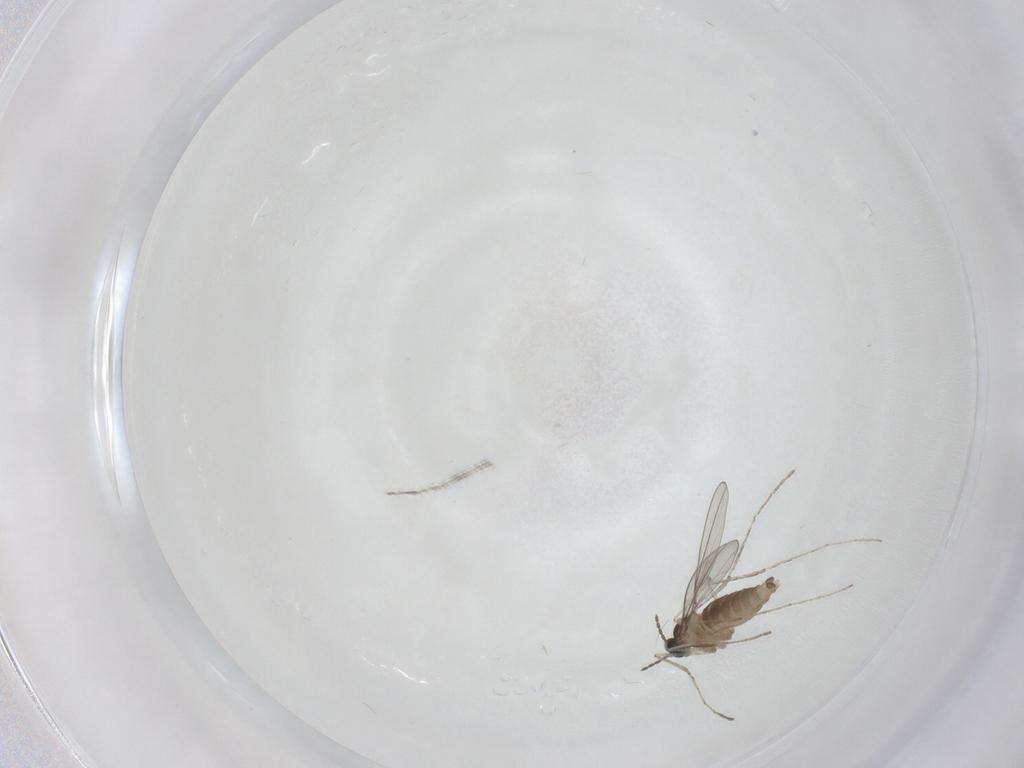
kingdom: Animalia
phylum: Arthropoda
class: Insecta
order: Diptera
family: Cecidomyiidae
